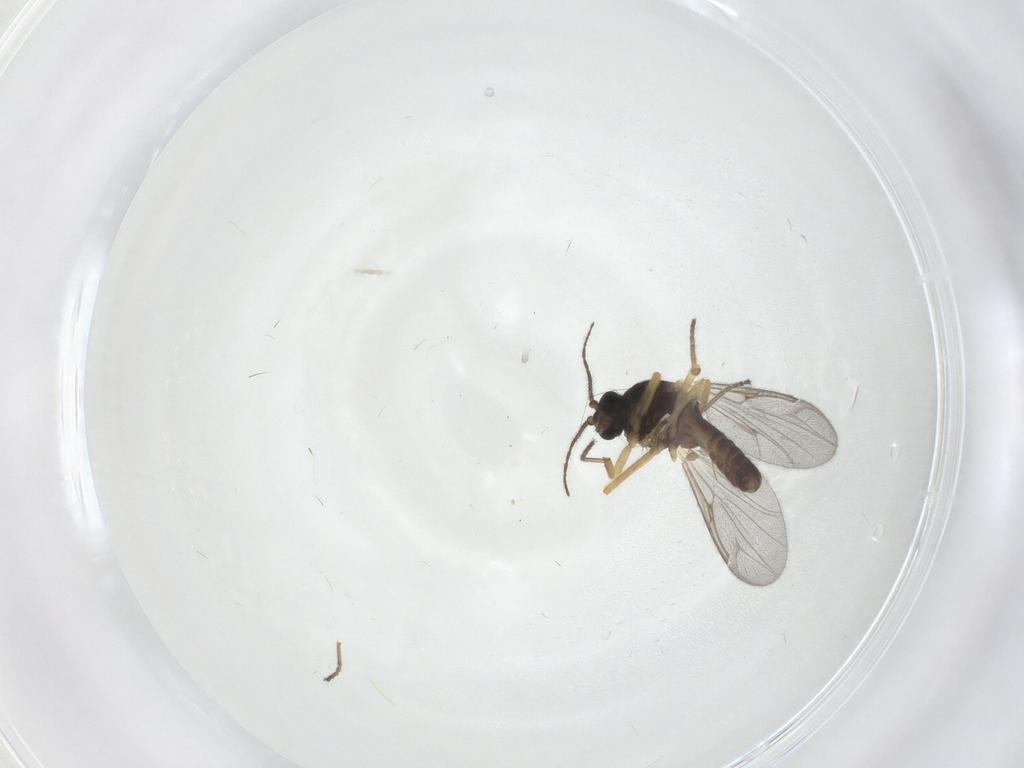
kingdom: Animalia
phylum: Arthropoda
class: Insecta
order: Diptera
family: Ceratopogonidae
